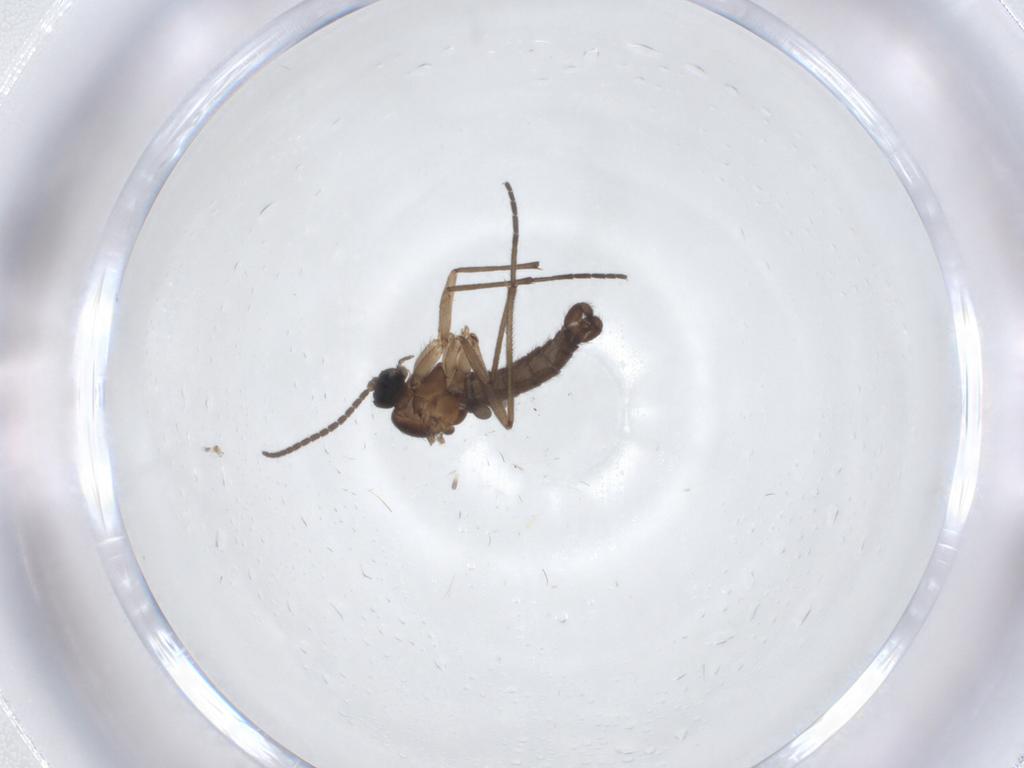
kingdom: Animalia
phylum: Arthropoda
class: Insecta
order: Diptera
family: Sciaridae
